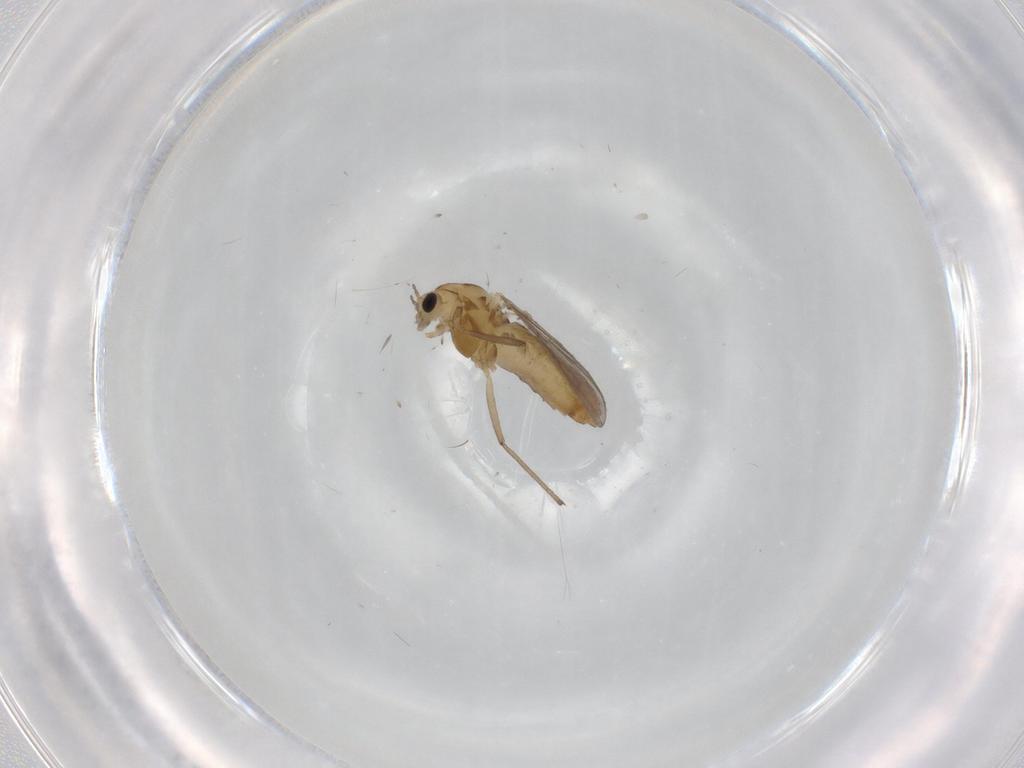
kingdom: Animalia
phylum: Arthropoda
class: Insecta
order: Diptera
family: Chironomidae
